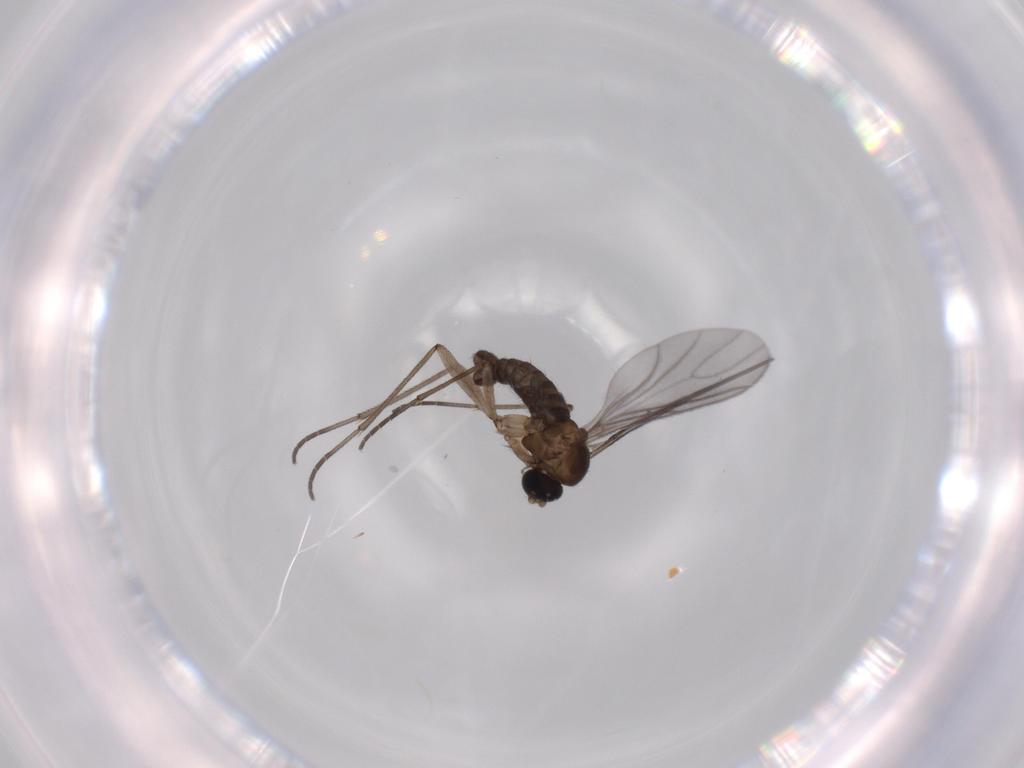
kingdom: Animalia
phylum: Arthropoda
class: Insecta
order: Diptera
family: Sciaridae
